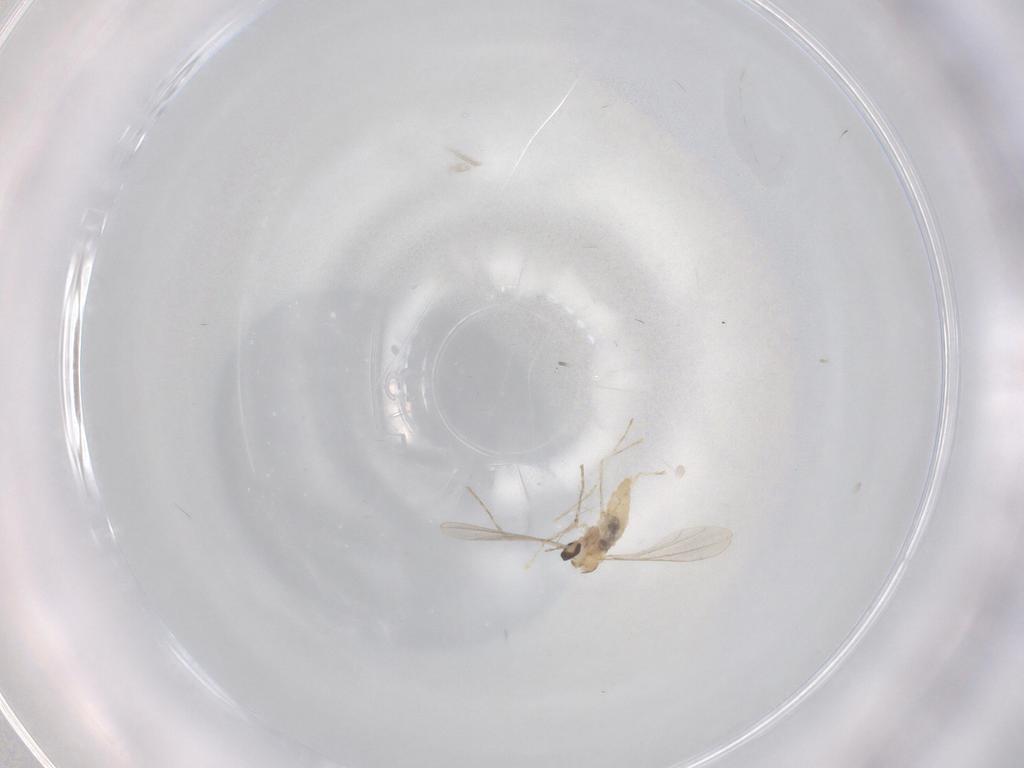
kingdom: Animalia
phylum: Arthropoda
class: Insecta
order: Diptera
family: Cecidomyiidae
